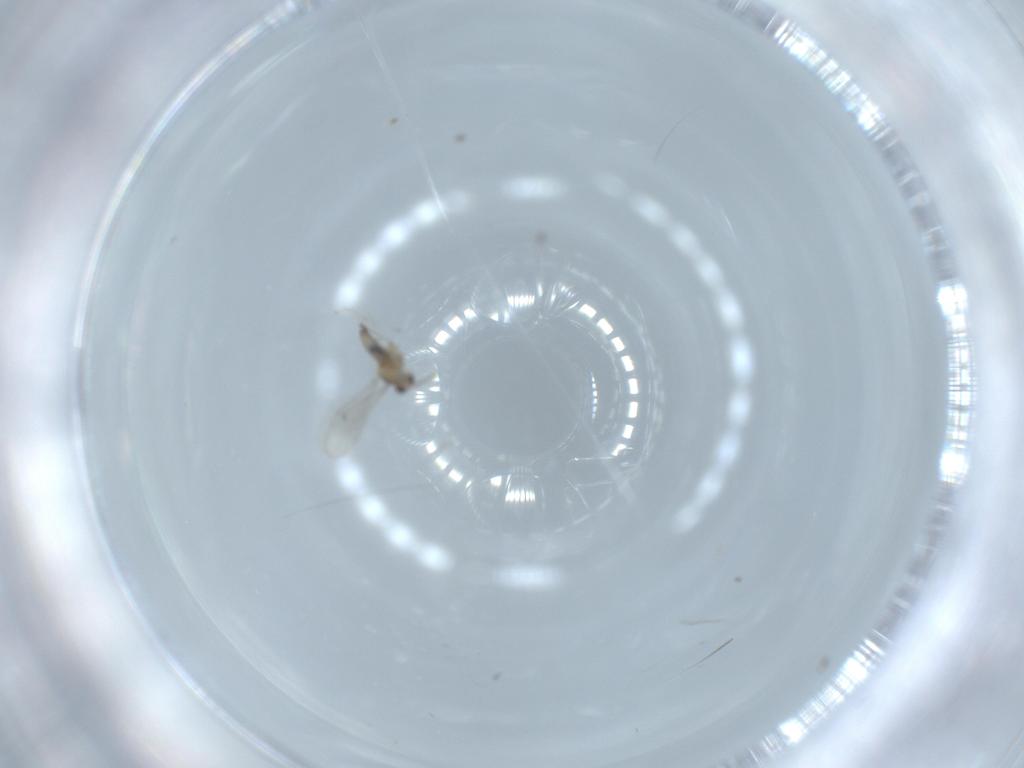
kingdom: Animalia
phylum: Arthropoda
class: Insecta
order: Diptera
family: Cecidomyiidae
